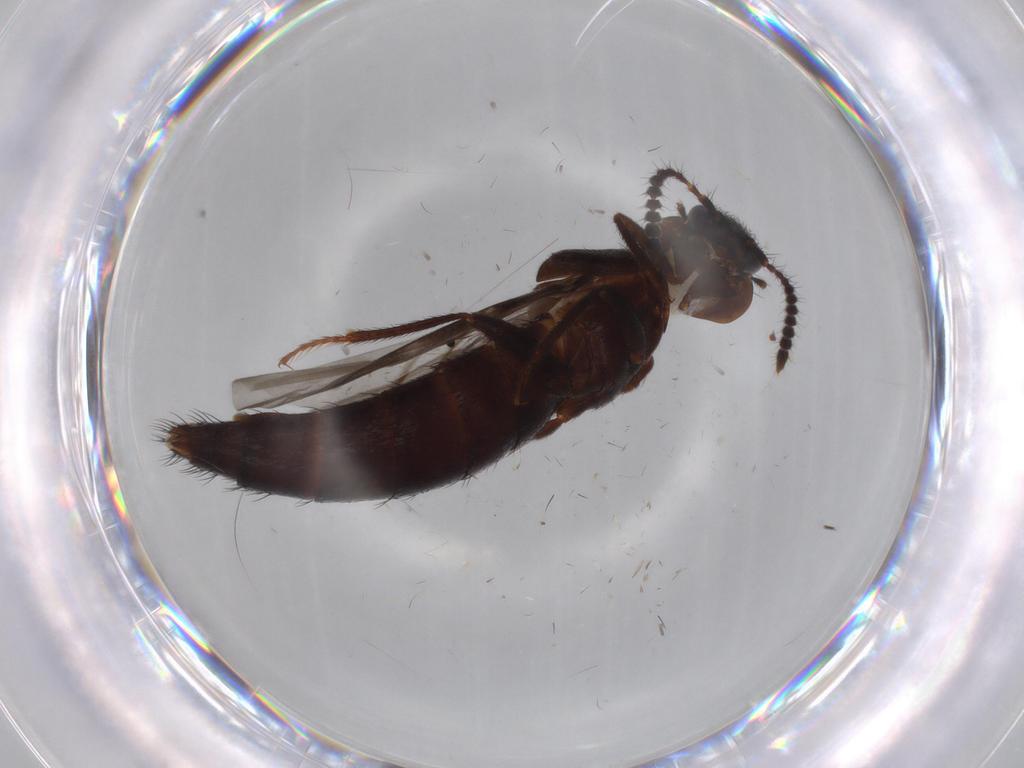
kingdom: Animalia
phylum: Arthropoda
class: Insecta
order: Coleoptera
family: Staphylinidae
